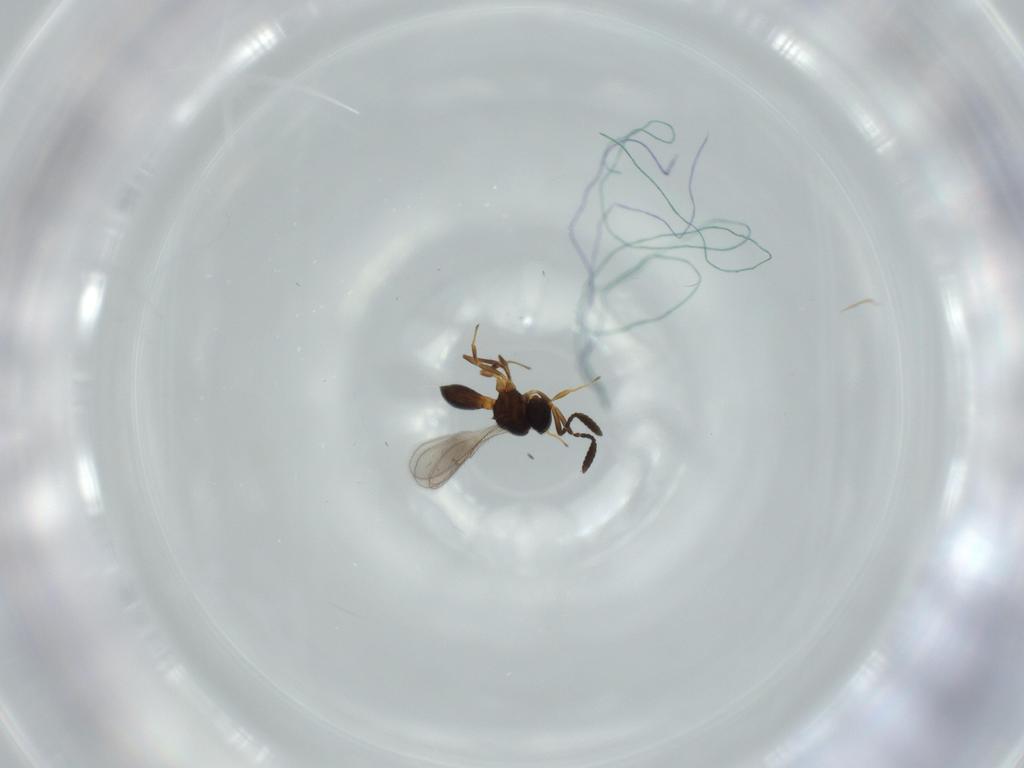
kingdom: Animalia
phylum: Arthropoda
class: Insecta
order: Hymenoptera
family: Scelionidae
